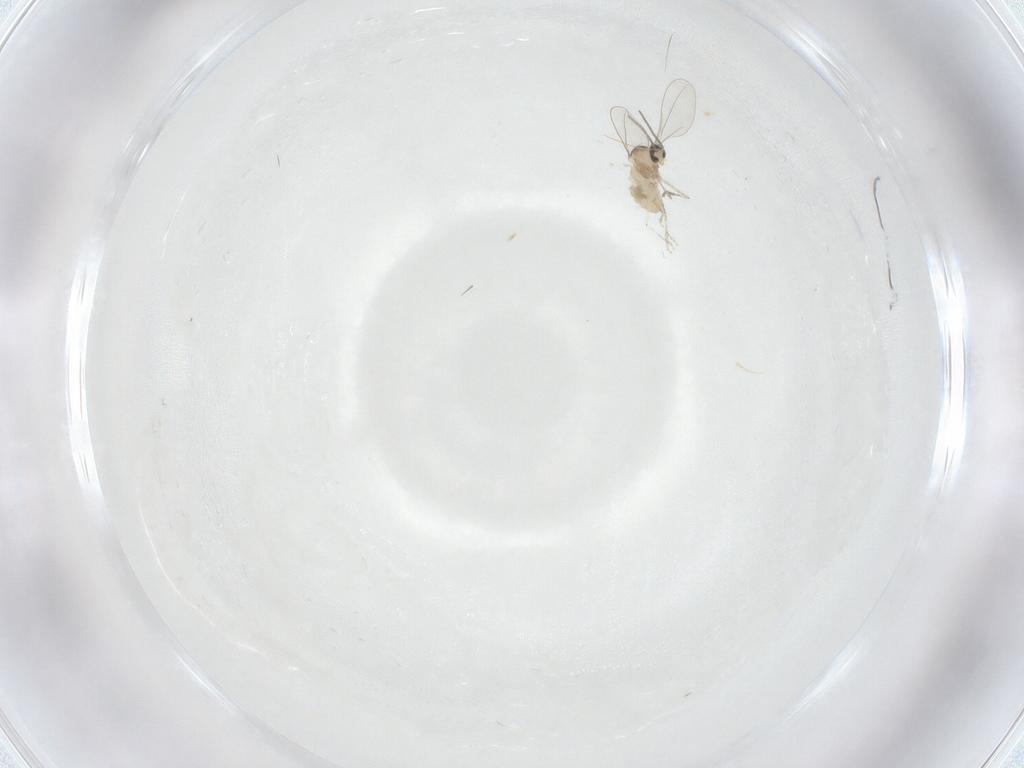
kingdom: Animalia
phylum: Arthropoda
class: Insecta
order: Diptera
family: Cecidomyiidae
